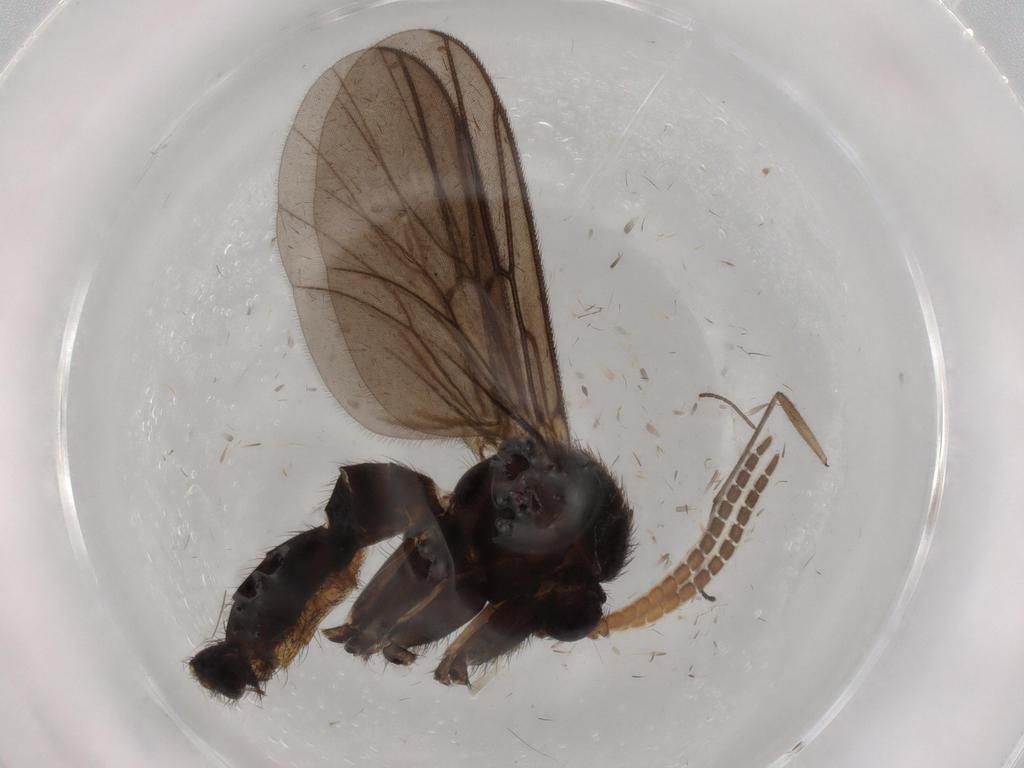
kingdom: Animalia
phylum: Arthropoda
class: Insecta
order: Diptera
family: Mycetophilidae
